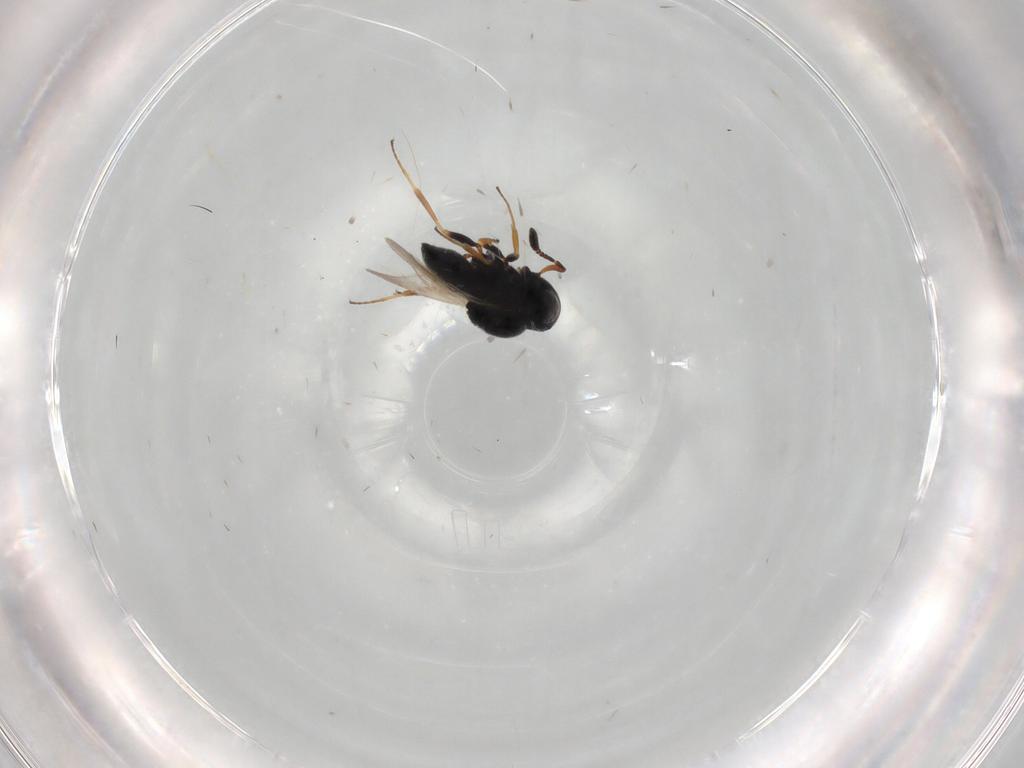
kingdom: Animalia
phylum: Arthropoda
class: Insecta
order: Coleoptera
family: Curculionidae
